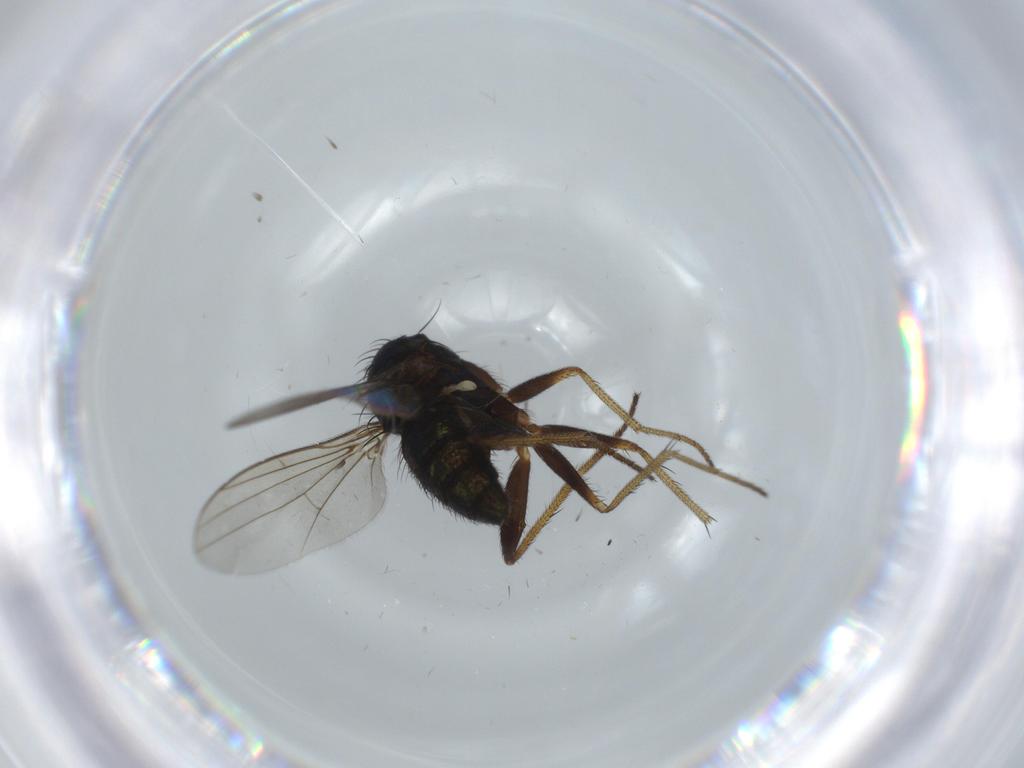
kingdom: Animalia
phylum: Arthropoda
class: Insecta
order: Diptera
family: Dolichopodidae
